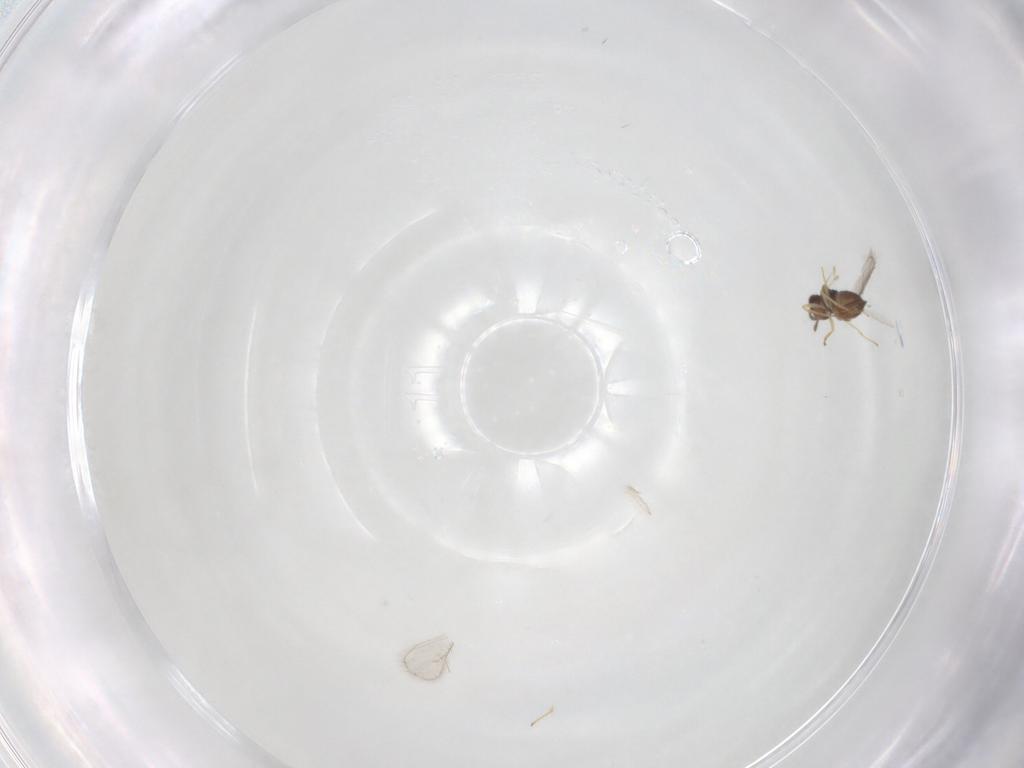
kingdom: Animalia
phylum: Arthropoda
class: Insecta
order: Hymenoptera
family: Eulophidae
